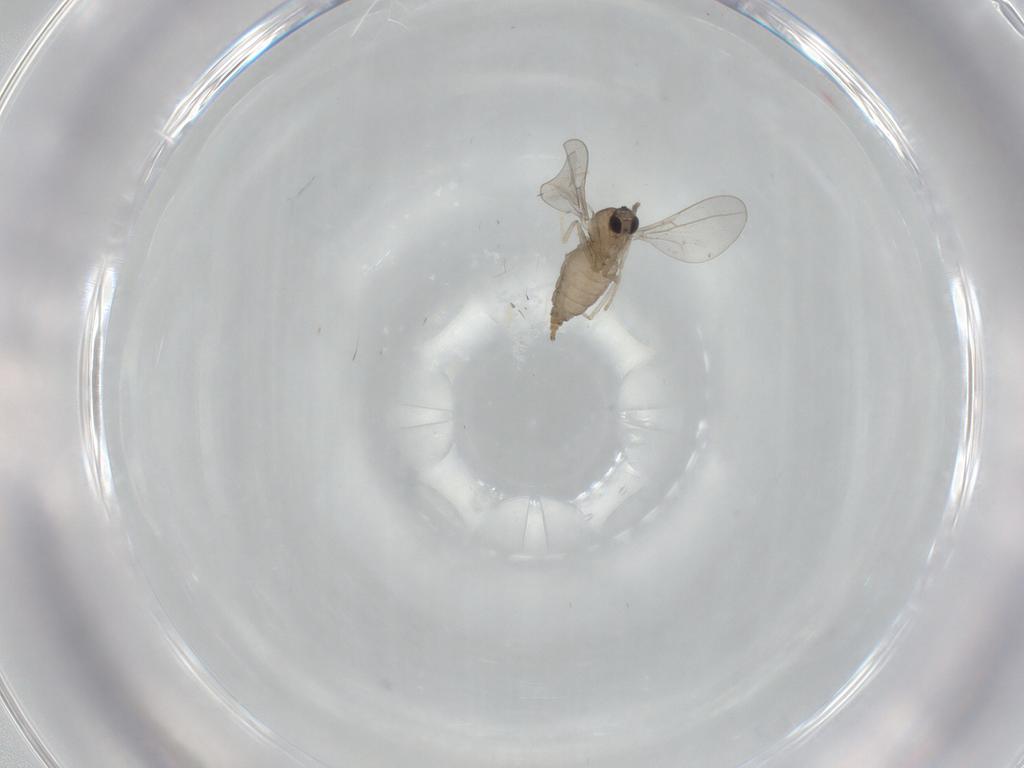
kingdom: Animalia
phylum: Arthropoda
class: Insecta
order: Diptera
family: Cecidomyiidae
